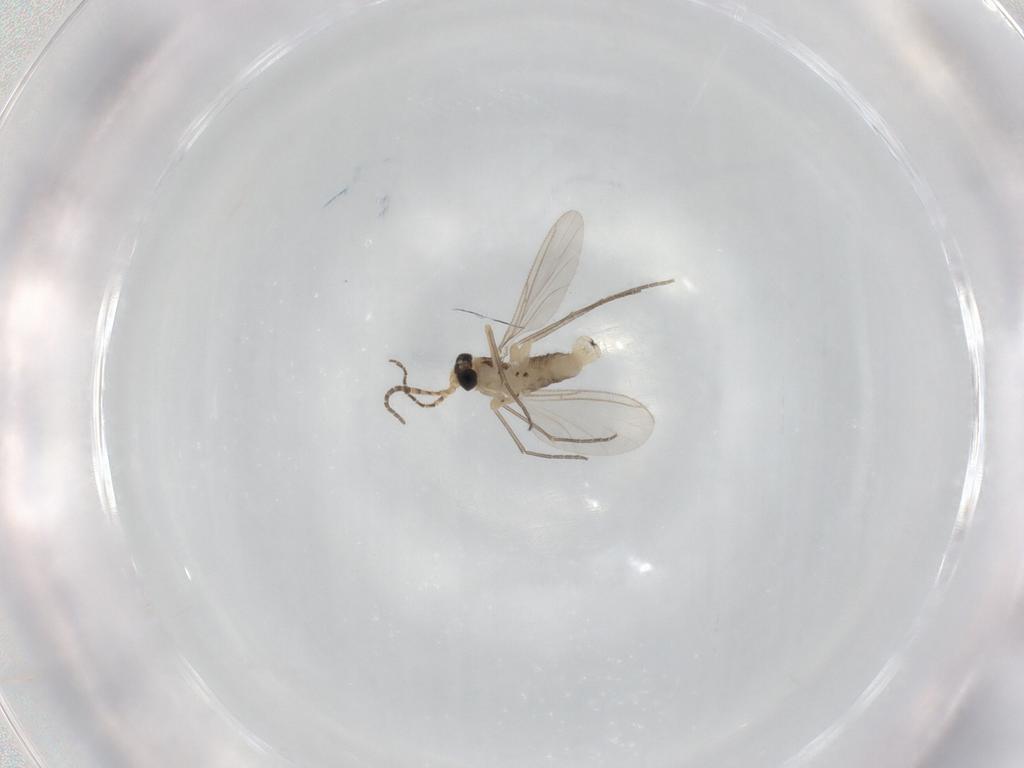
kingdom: Animalia
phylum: Arthropoda
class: Insecta
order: Diptera
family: Sciaridae
